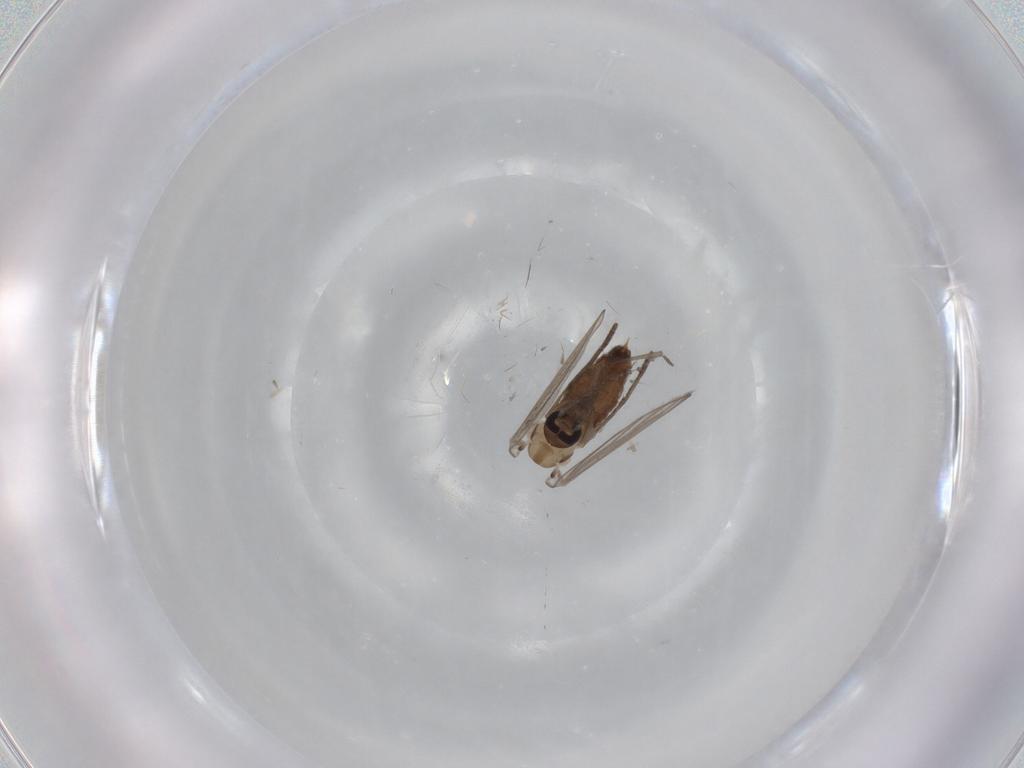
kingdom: Animalia
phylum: Arthropoda
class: Insecta
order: Diptera
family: Psychodidae
